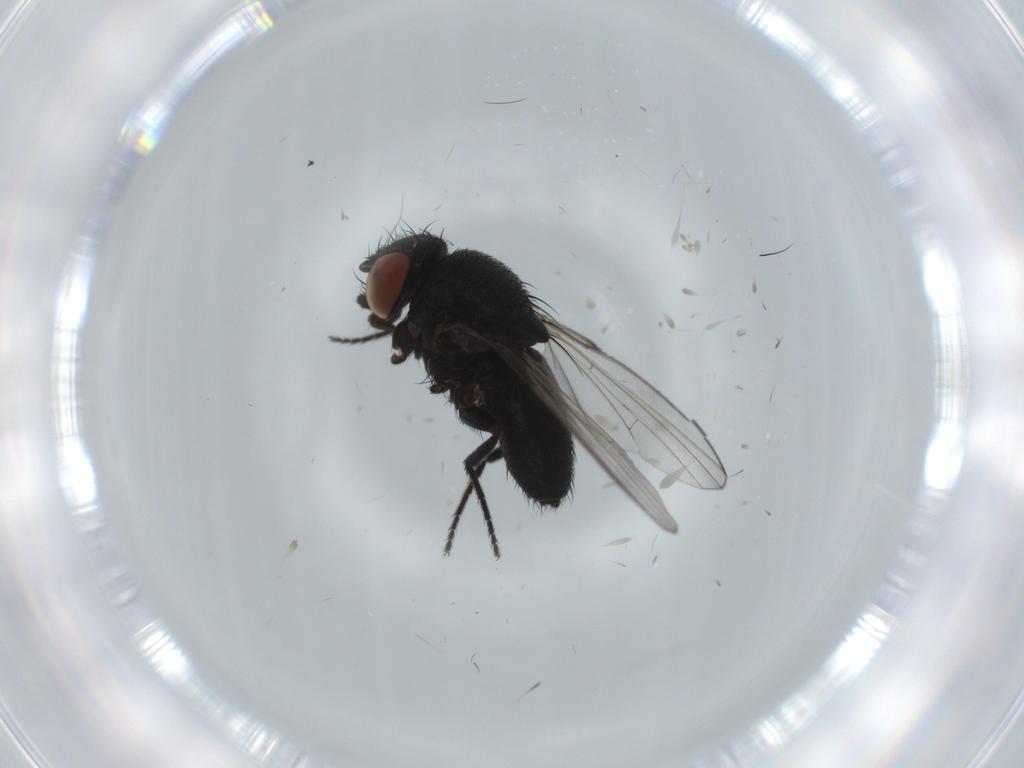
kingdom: Animalia
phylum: Arthropoda
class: Insecta
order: Diptera
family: Milichiidae
